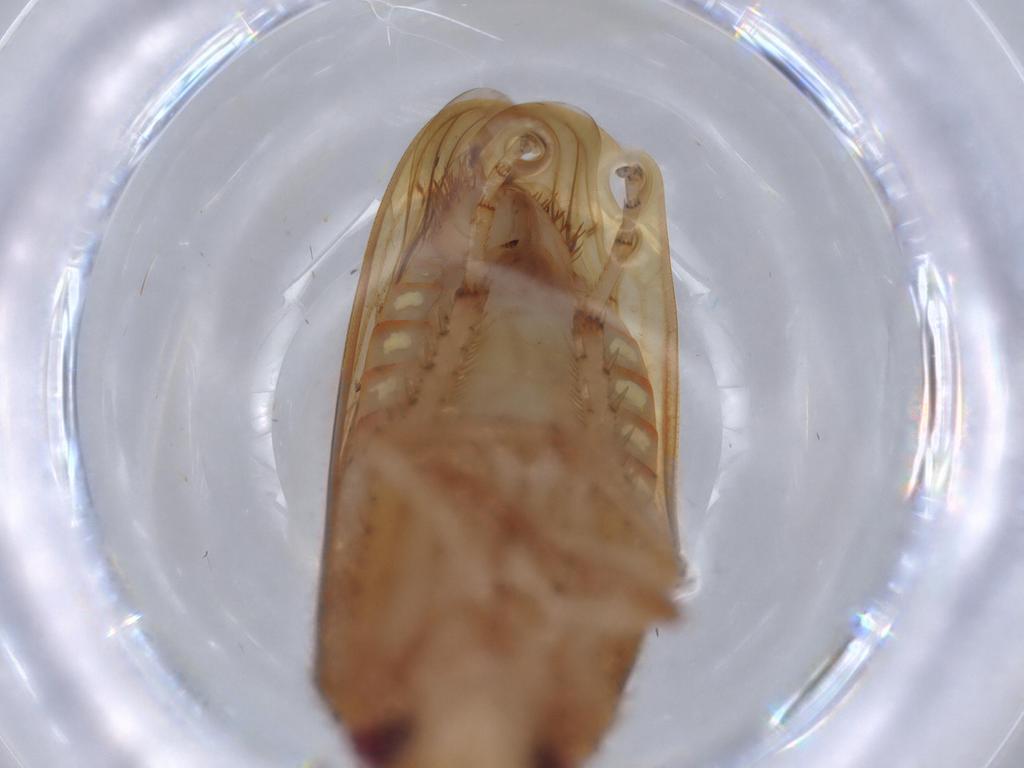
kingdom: Animalia
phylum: Arthropoda
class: Insecta
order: Hemiptera
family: Cicadellidae
